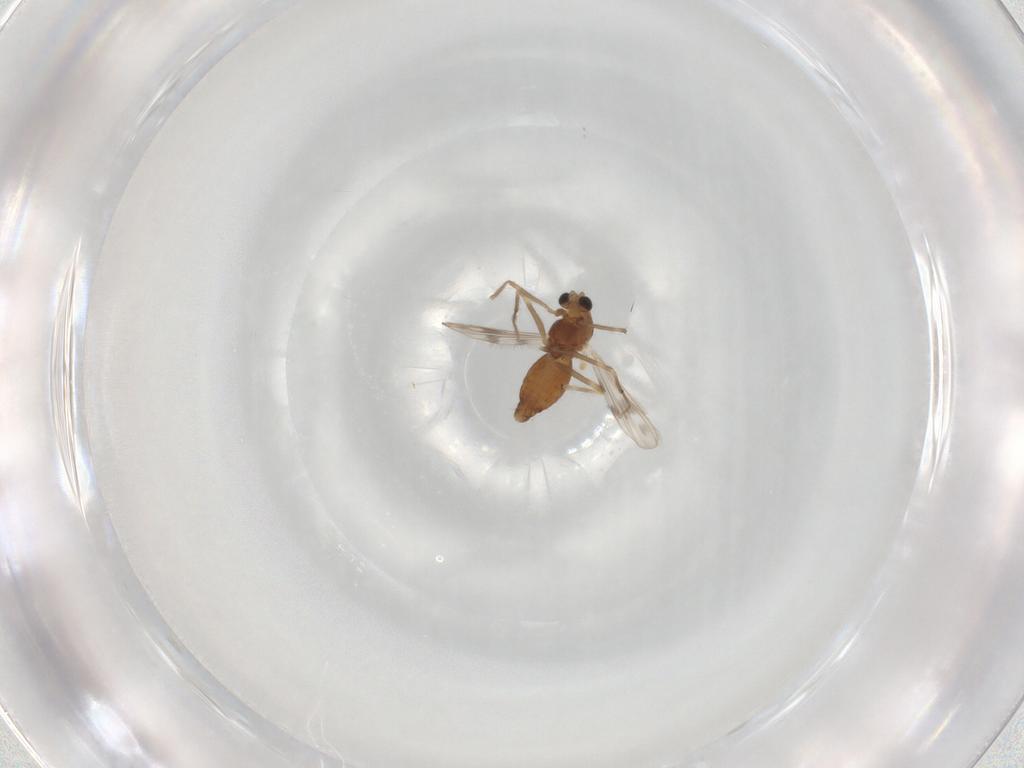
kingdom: Animalia
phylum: Arthropoda
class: Insecta
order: Diptera
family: Chironomidae
